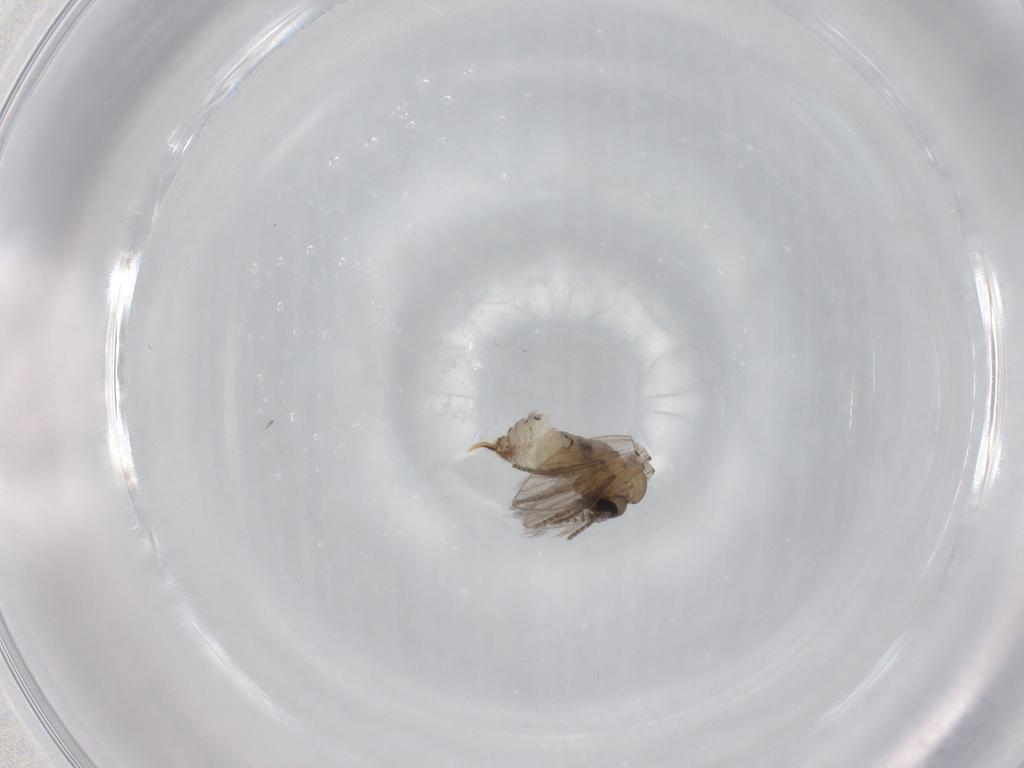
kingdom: Animalia
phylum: Arthropoda
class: Insecta
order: Diptera
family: Psychodidae
